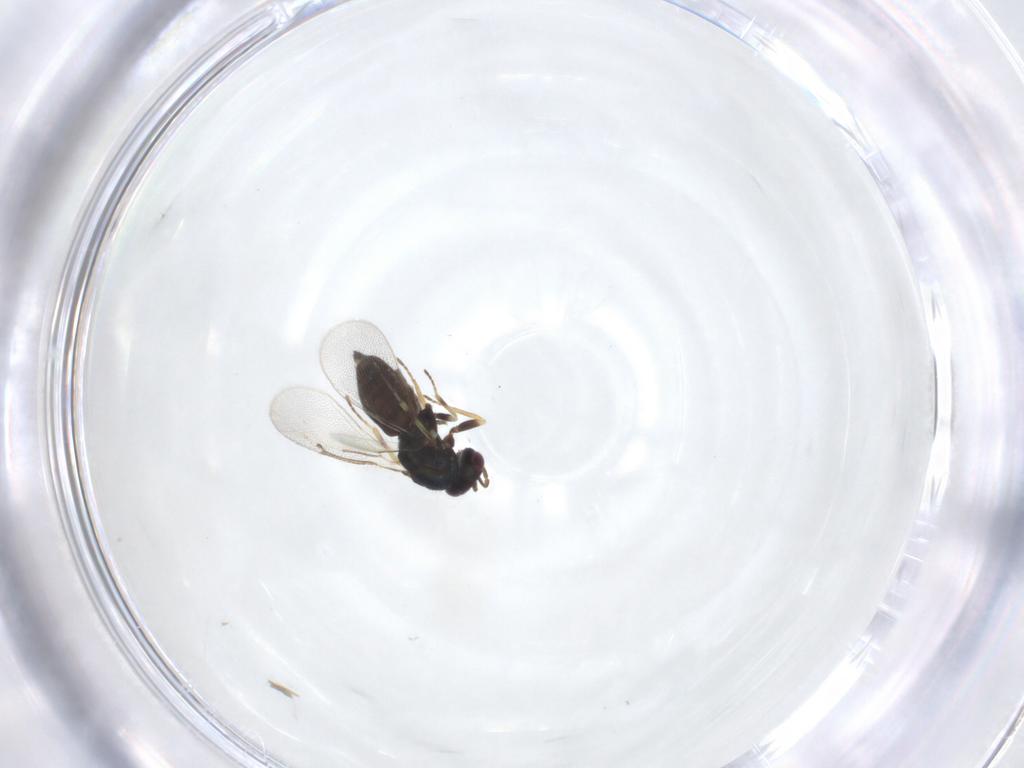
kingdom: Animalia
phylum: Arthropoda
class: Insecta
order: Hymenoptera
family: Eulophidae
